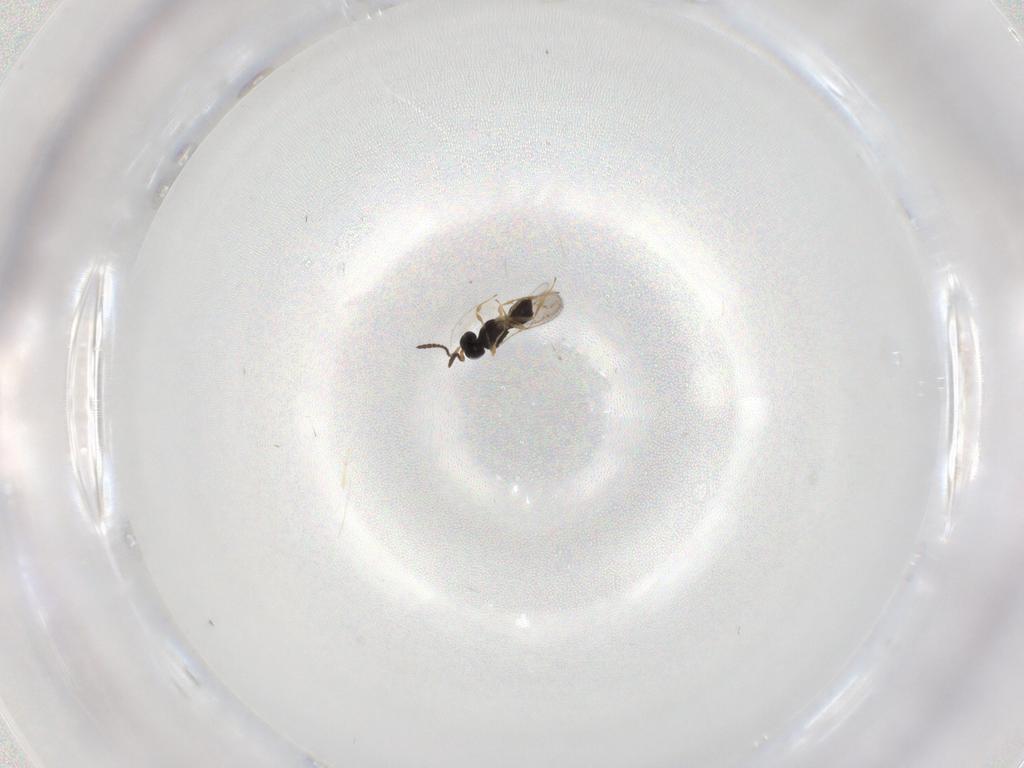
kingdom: Animalia
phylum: Arthropoda
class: Insecta
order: Hymenoptera
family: Scelionidae
